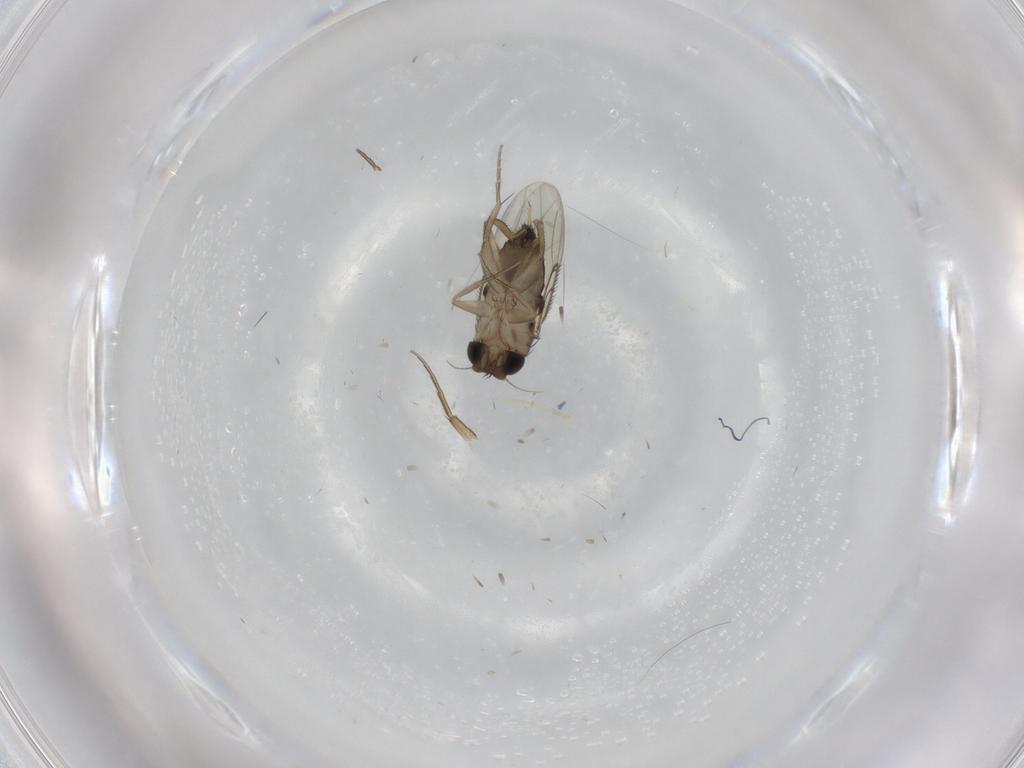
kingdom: Animalia
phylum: Arthropoda
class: Insecta
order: Diptera
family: Phoridae
